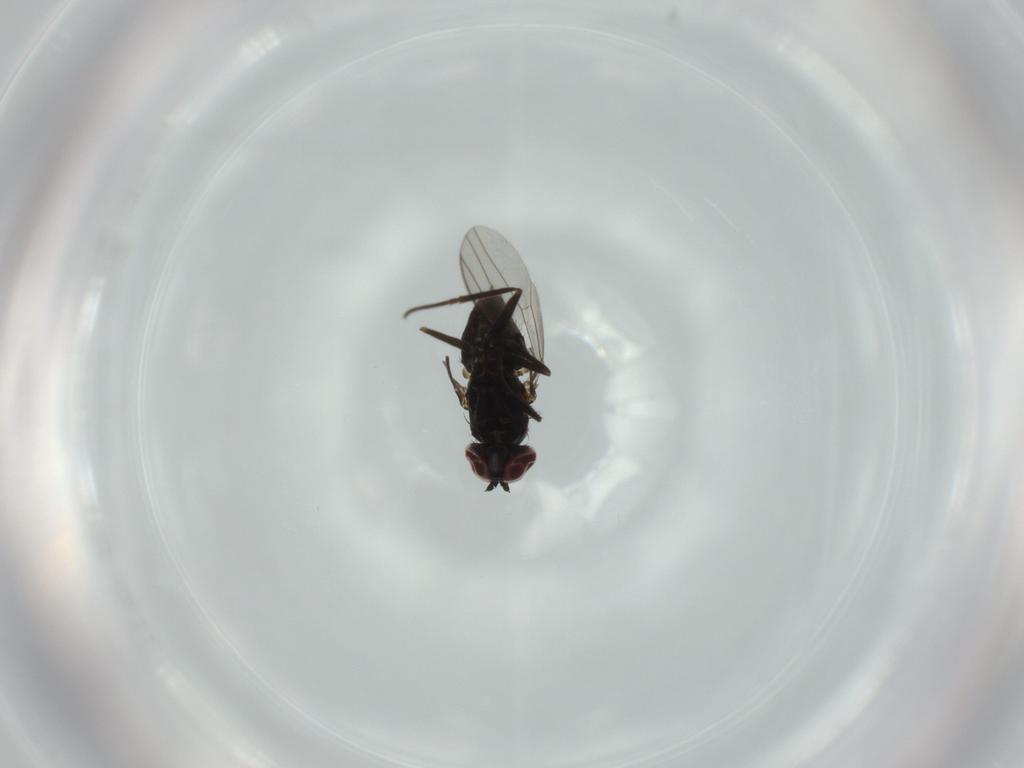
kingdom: Animalia
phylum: Arthropoda
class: Insecta
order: Diptera
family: Dolichopodidae
